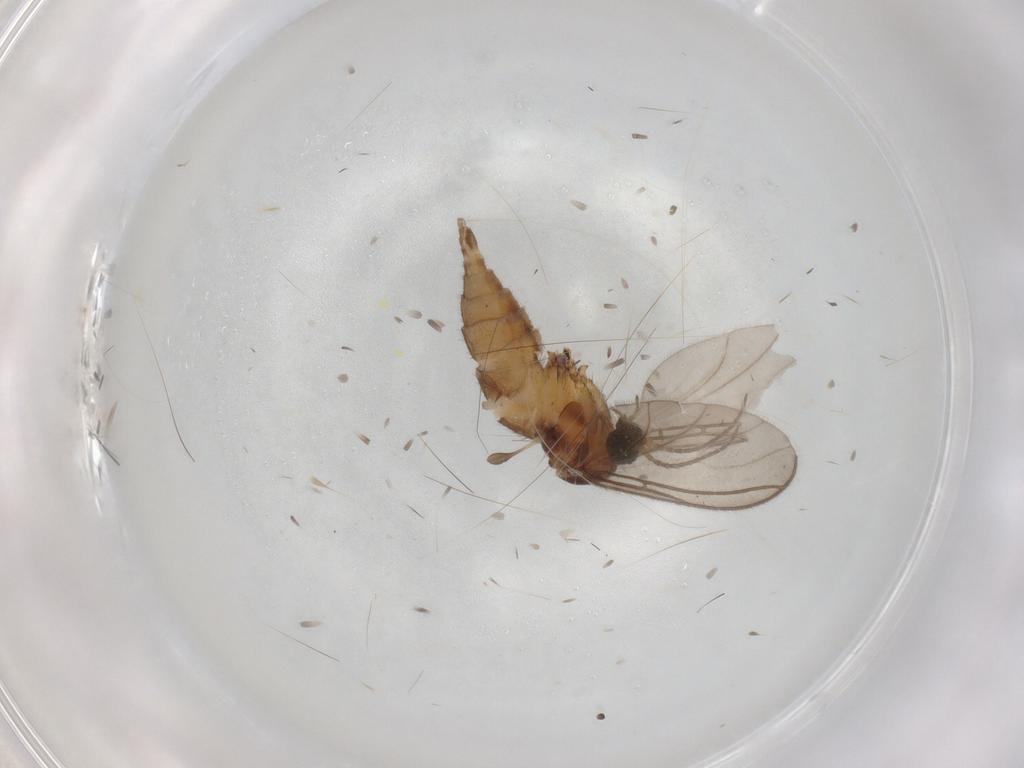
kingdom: Animalia
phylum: Arthropoda
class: Insecta
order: Diptera
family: Sciaridae
